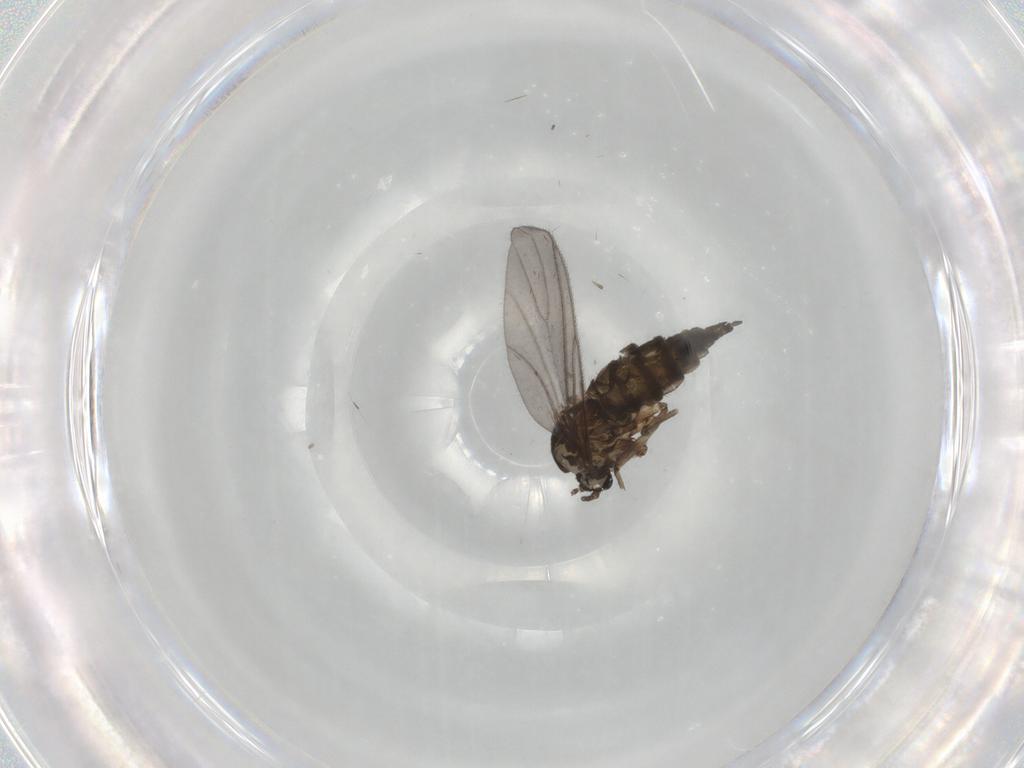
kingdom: Animalia
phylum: Arthropoda
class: Insecta
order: Diptera
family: Sciaridae
